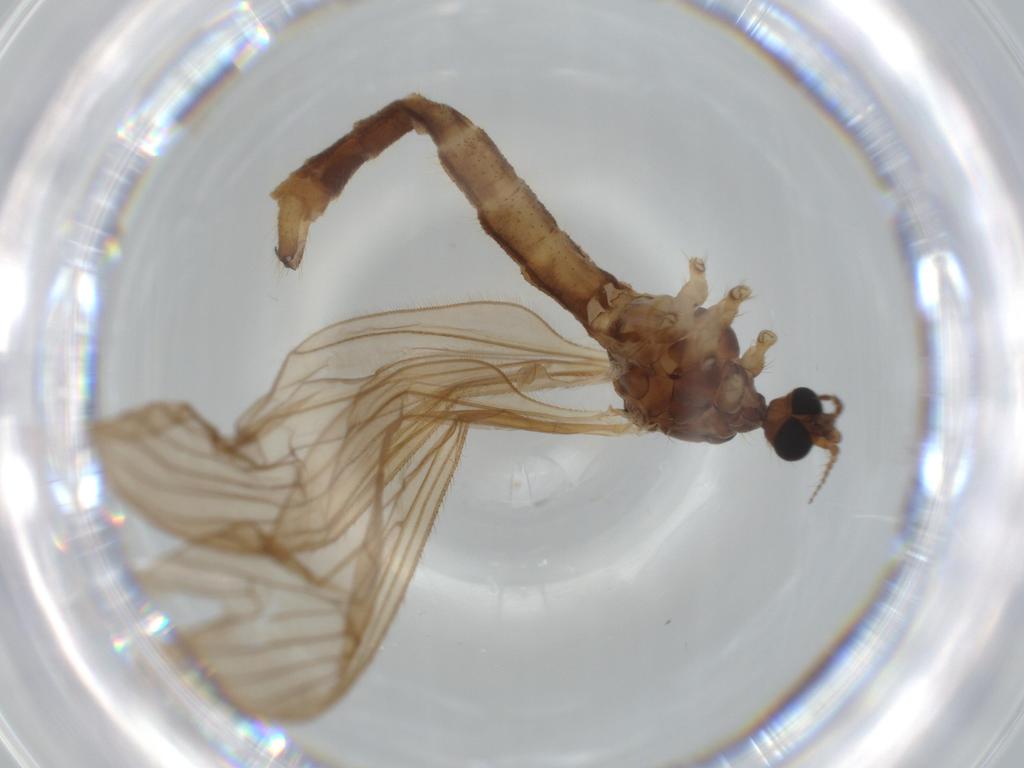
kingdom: Animalia
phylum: Arthropoda
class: Insecta
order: Diptera
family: Limoniidae
